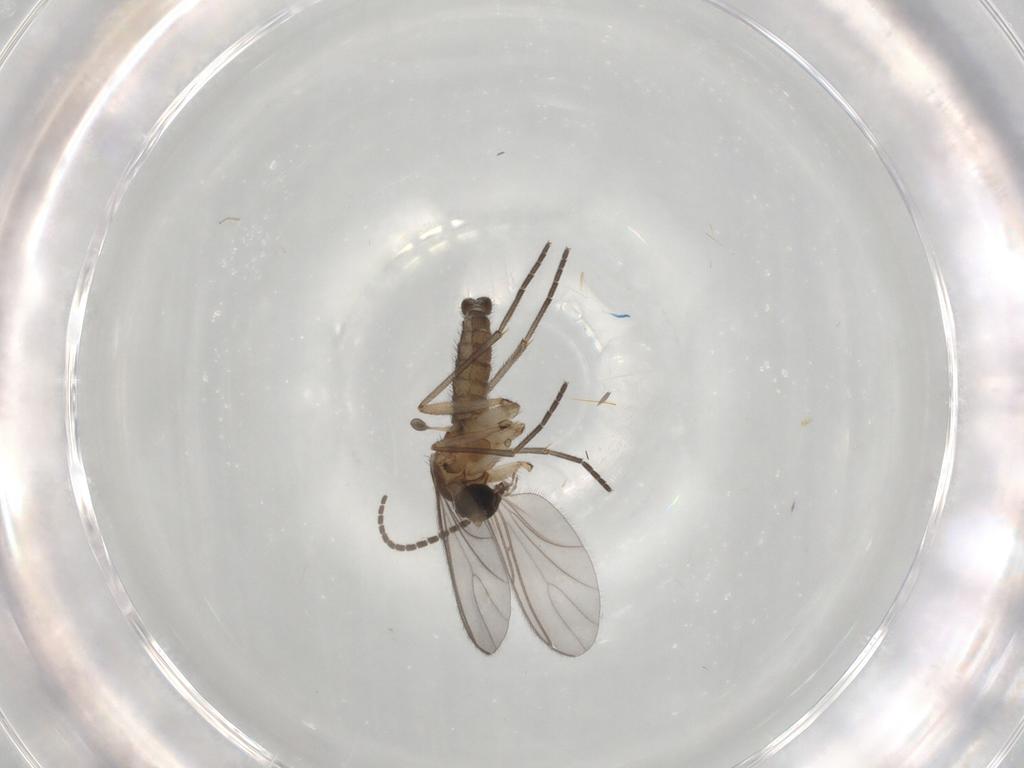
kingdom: Animalia
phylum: Arthropoda
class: Insecta
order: Diptera
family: Sciaridae
